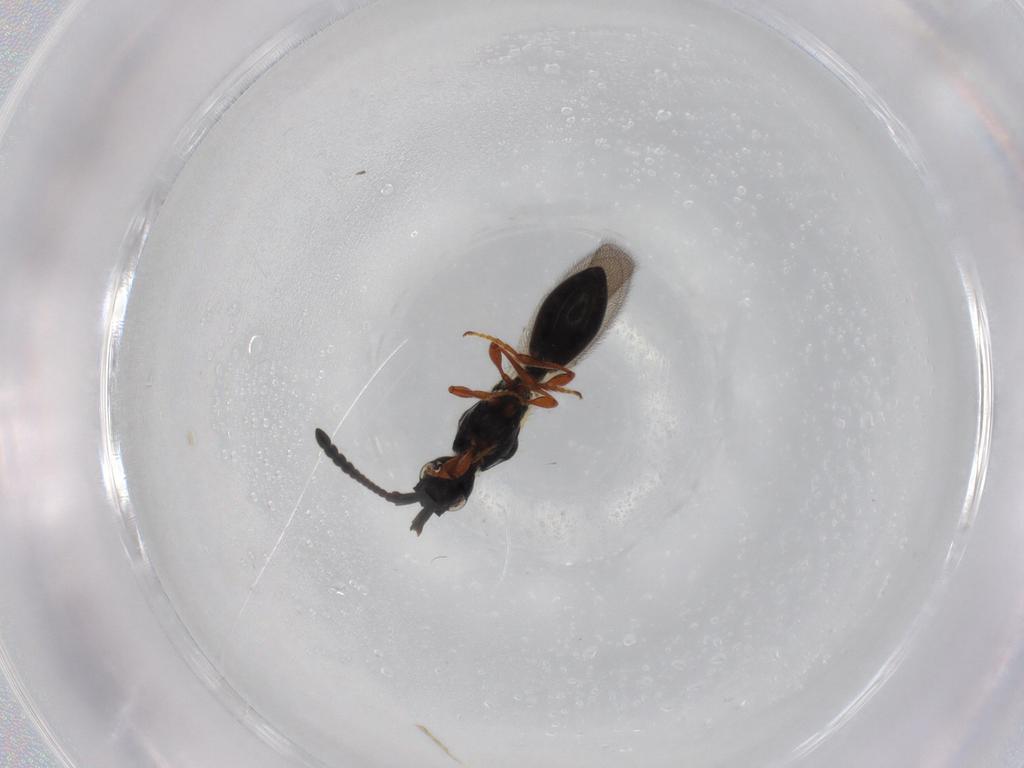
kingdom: Animalia
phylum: Arthropoda
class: Insecta
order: Hymenoptera
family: Diapriidae
